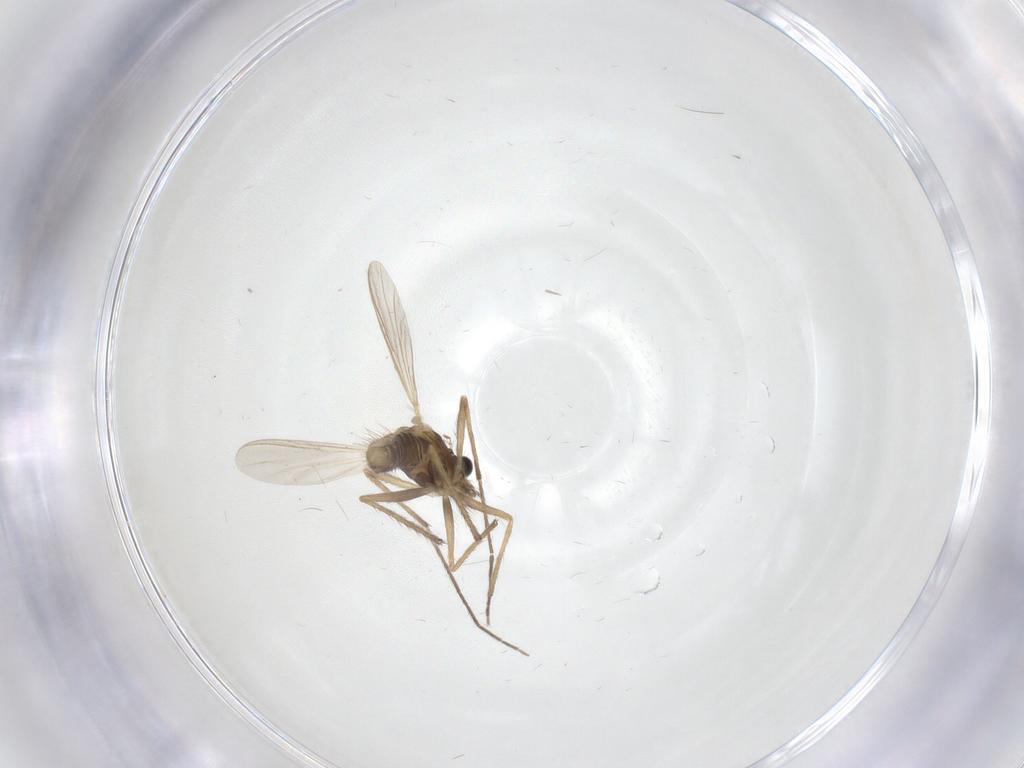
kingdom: Animalia
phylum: Arthropoda
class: Insecta
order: Diptera
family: Chironomidae
